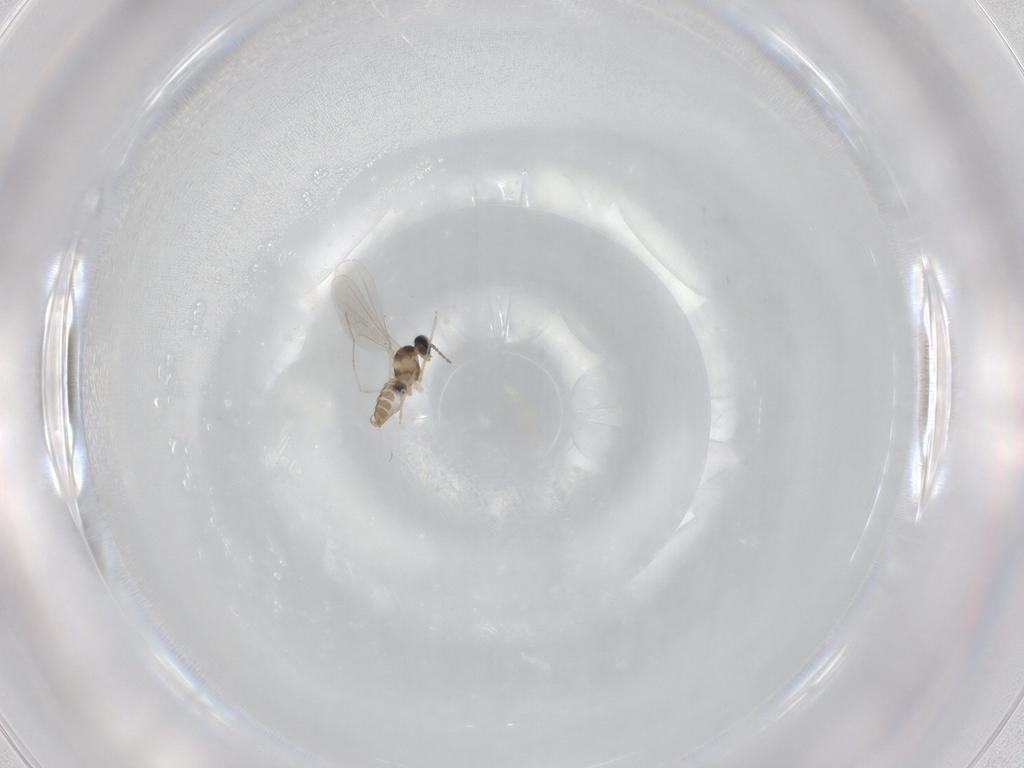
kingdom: Animalia
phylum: Arthropoda
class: Insecta
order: Diptera
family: Cecidomyiidae
